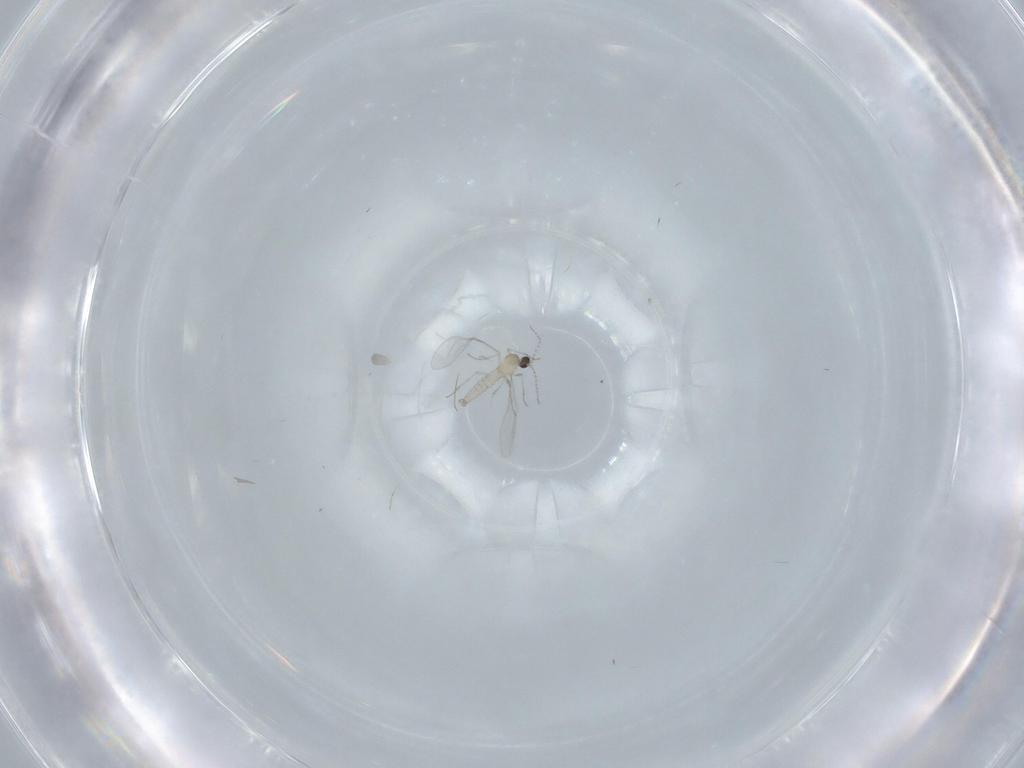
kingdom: Animalia
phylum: Arthropoda
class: Insecta
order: Diptera
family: Cecidomyiidae
